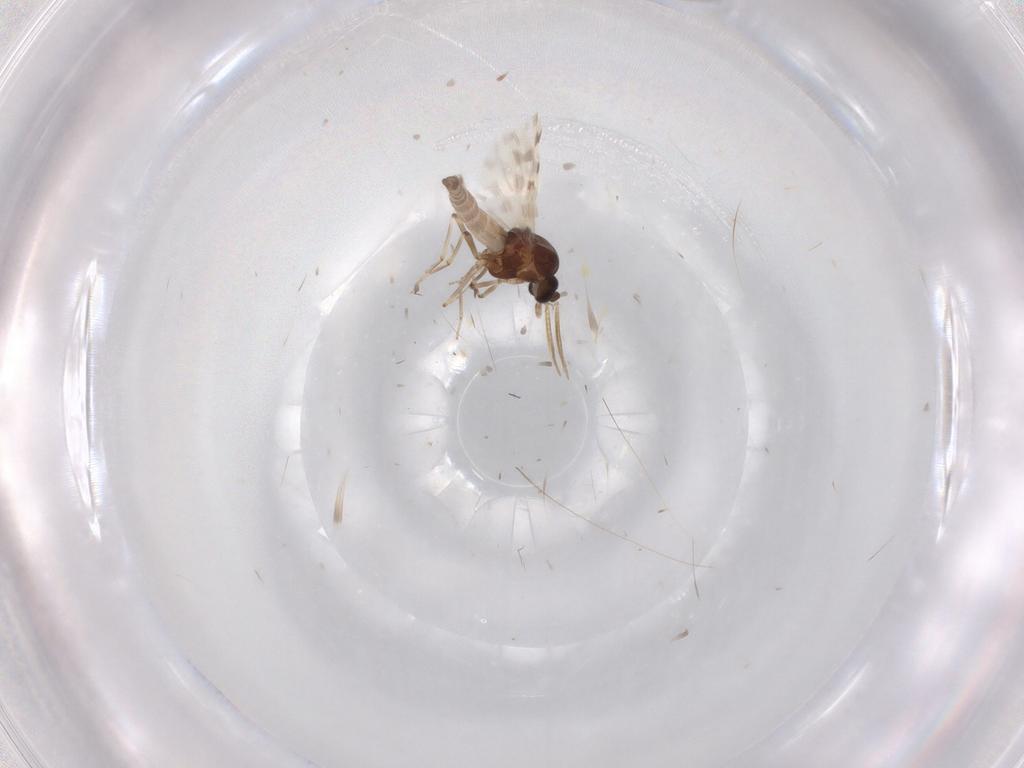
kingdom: Animalia
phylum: Arthropoda
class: Insecta
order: Diptera
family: Ceratopogonidae
